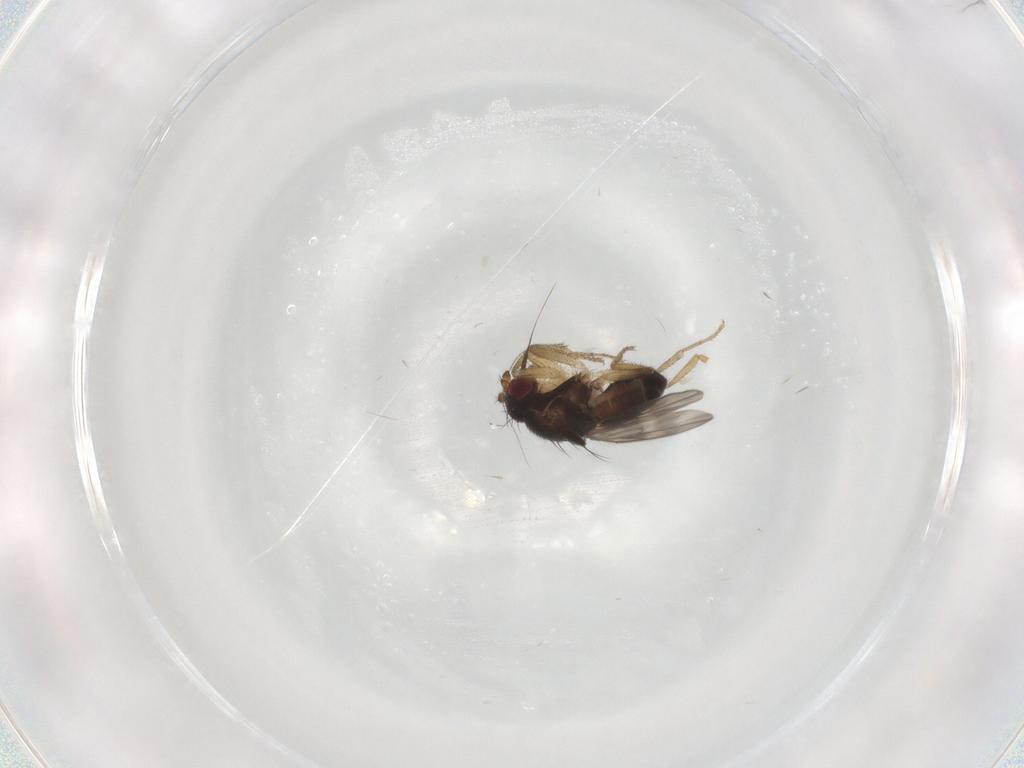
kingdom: Animalia
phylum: Arthropoda
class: Insecta
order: Diptera
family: Sphaeroceridae
